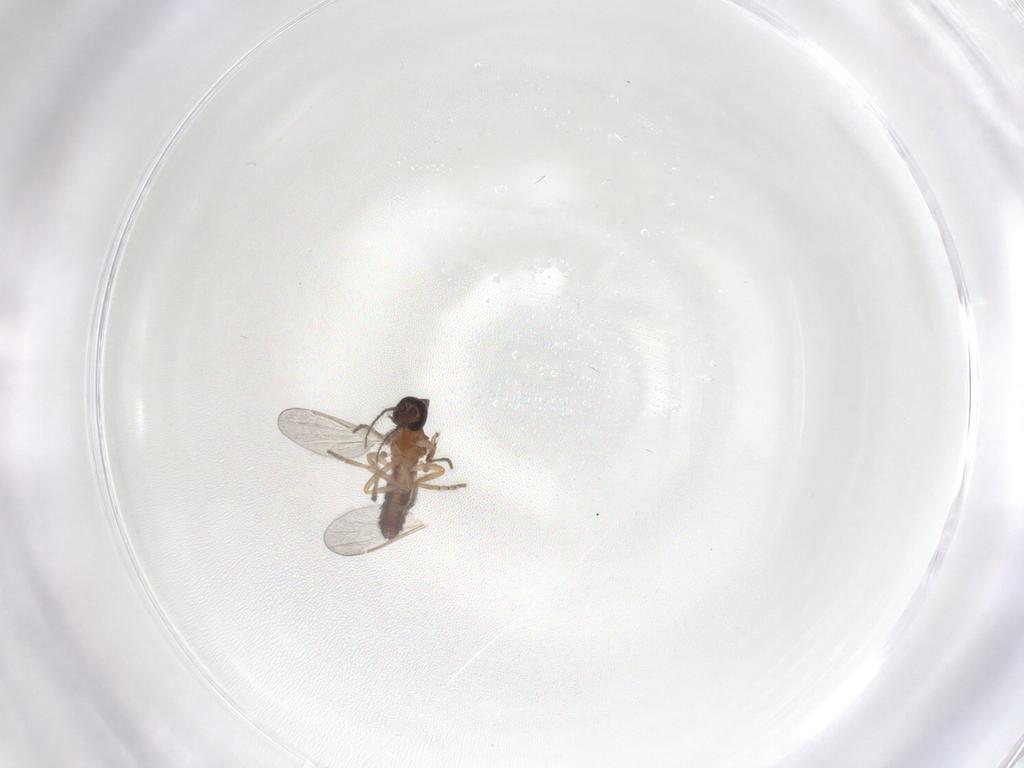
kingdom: Animalia
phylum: Arthropoda
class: Insecta
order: Diptera
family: Ceratopogonidae
